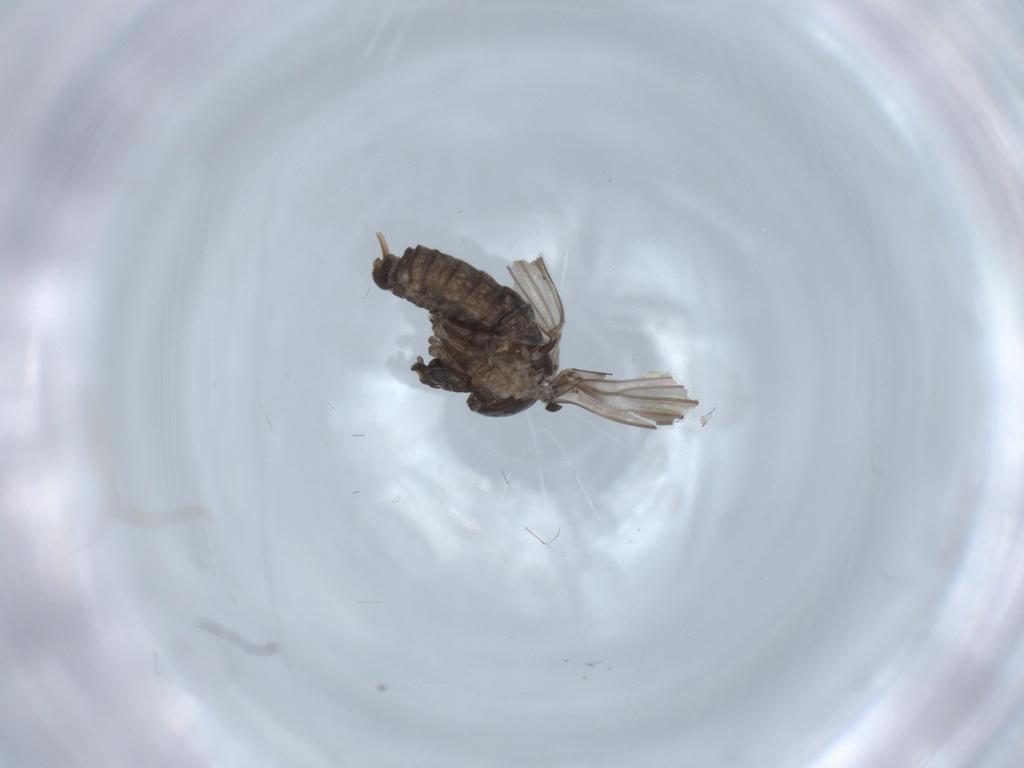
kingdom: Animalia
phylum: Arthropoda
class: Insecta
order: Diptera
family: Psychodidae
